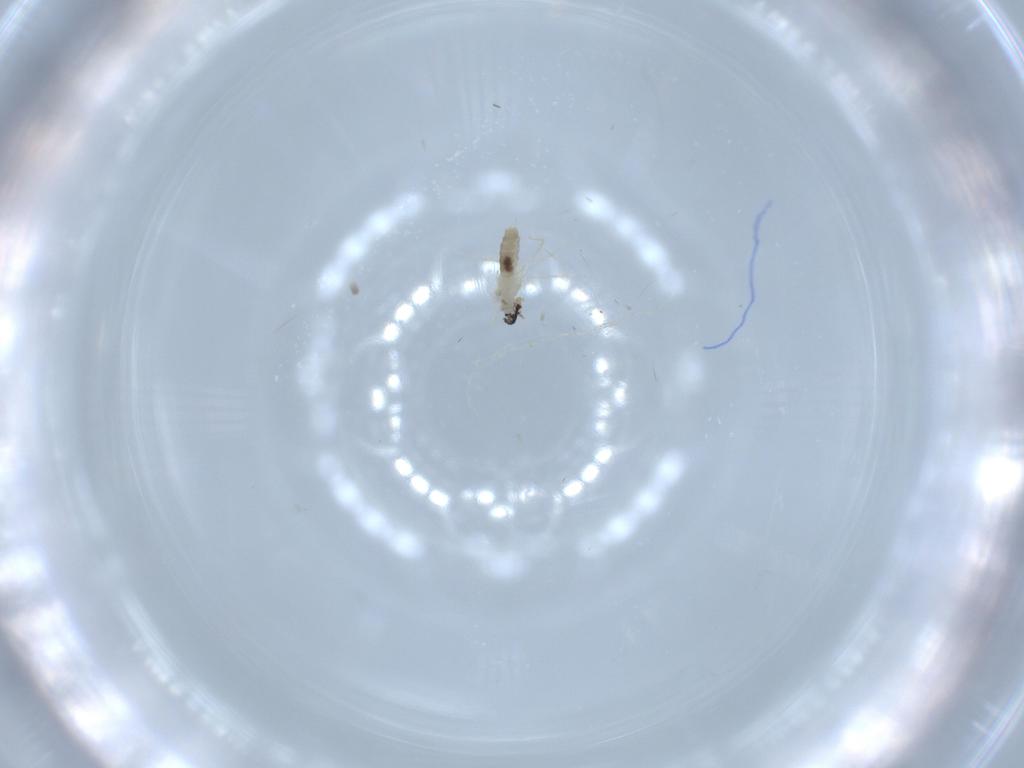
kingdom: Animalia
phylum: Arthropoda
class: Insecta
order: Diptera
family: Cecidomyiidae
